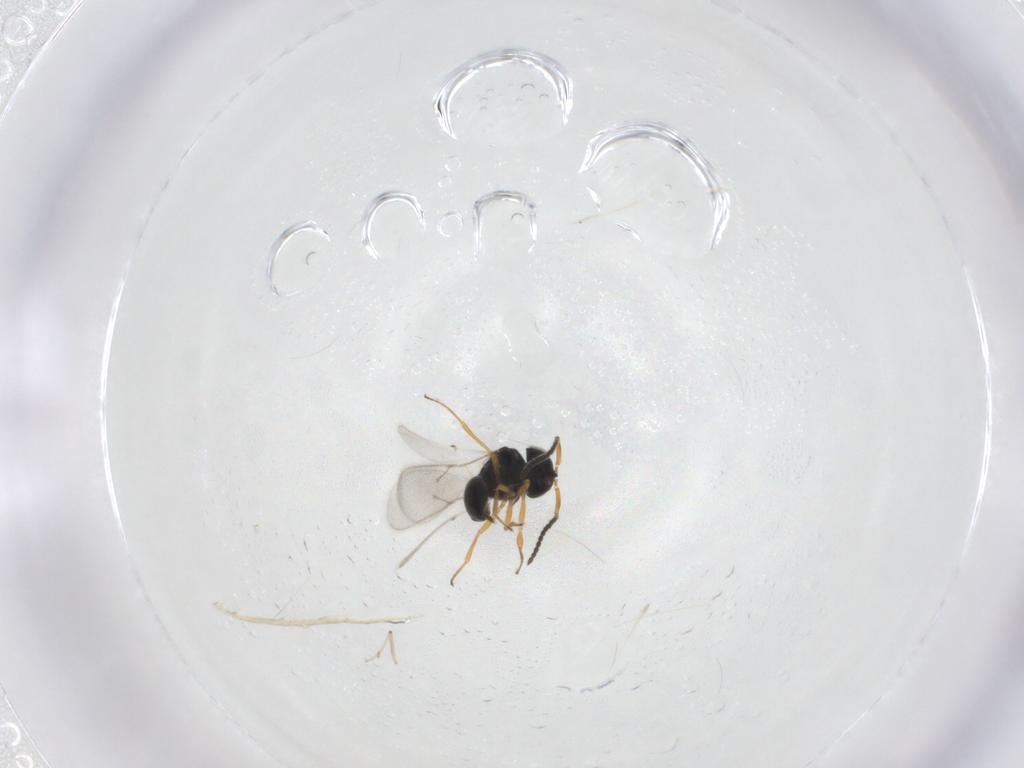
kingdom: Animalia
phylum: Arthropoda
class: Insecta
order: Hymenoptera
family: Scelionidae
